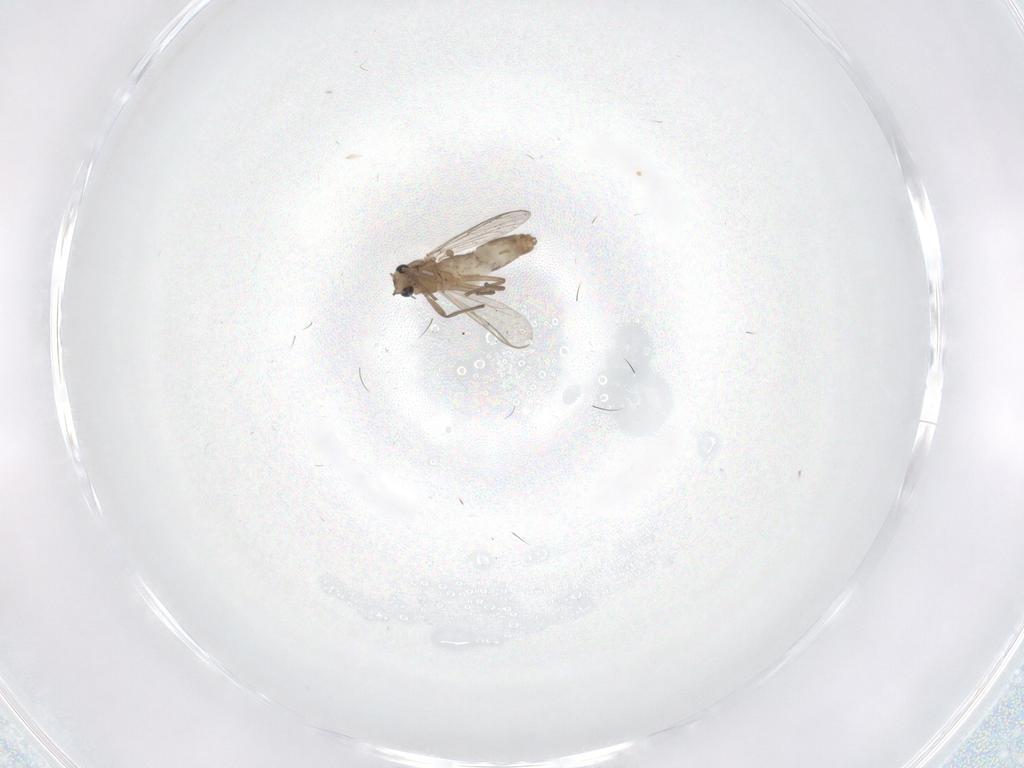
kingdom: Animalia
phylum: Arthropoda
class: Insecta
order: Diptera
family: Chironomidae
